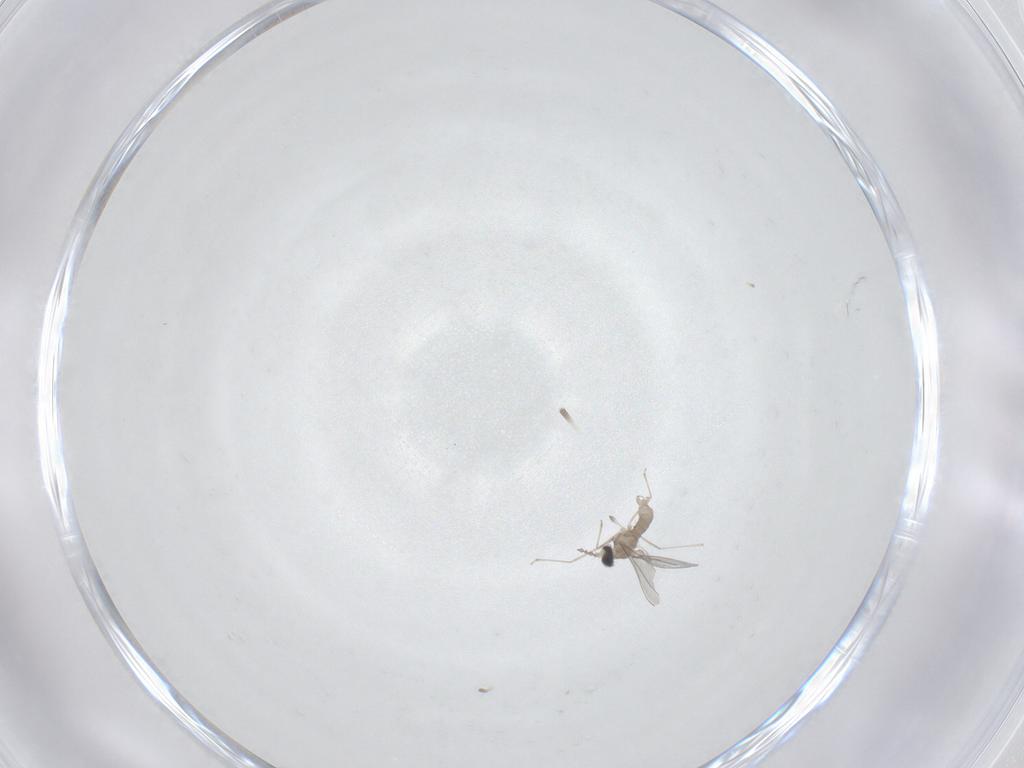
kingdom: Animalia
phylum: Arthropoda
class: Insecta
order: Diptera
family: Cecidomyiidae
